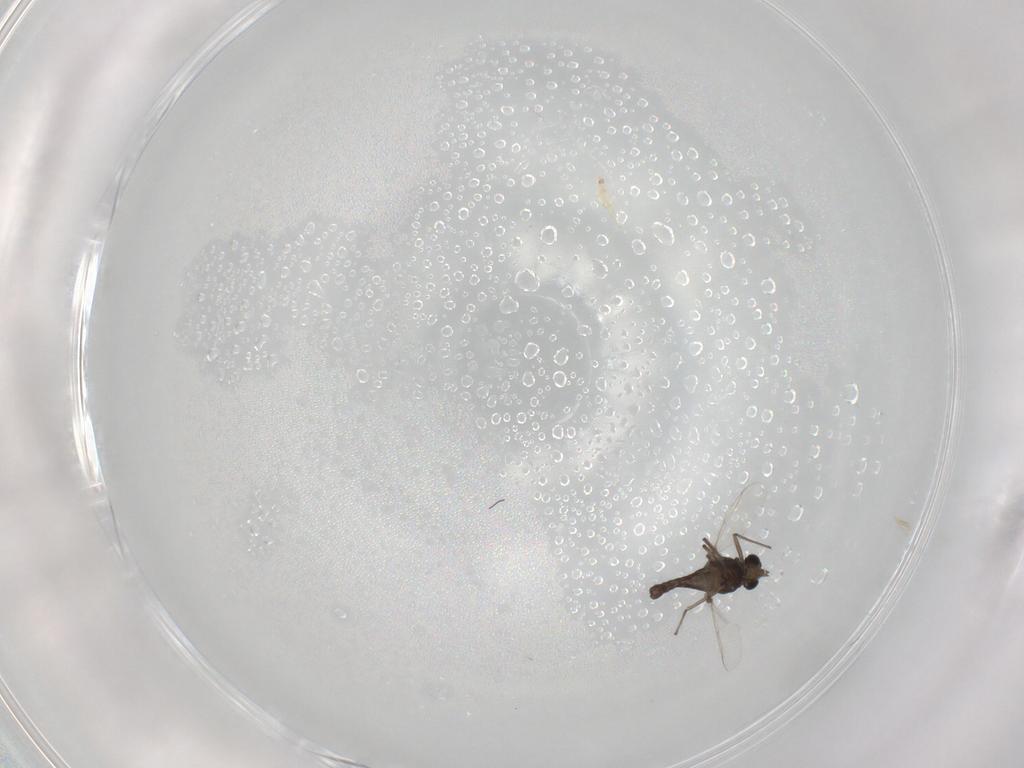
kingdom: Animalia
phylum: Arthropoda
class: Insecta
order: Diptera
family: Chironomidae
